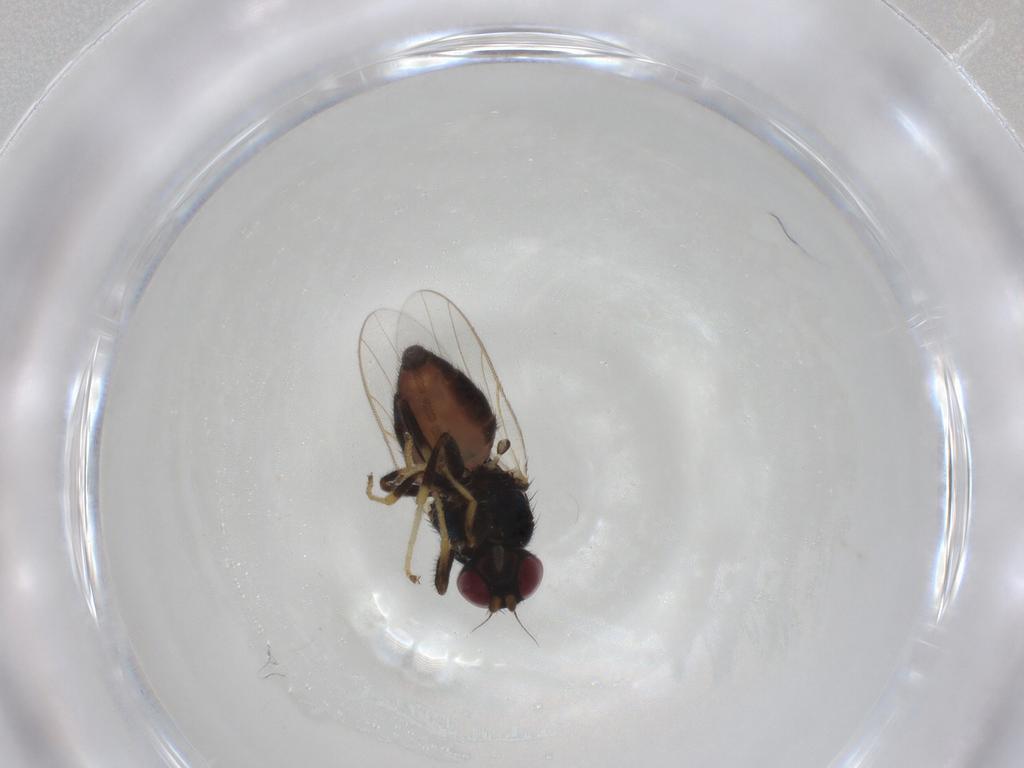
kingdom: Animalia
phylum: Arthropoda
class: Insecta
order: Diptera
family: Chloropidae
